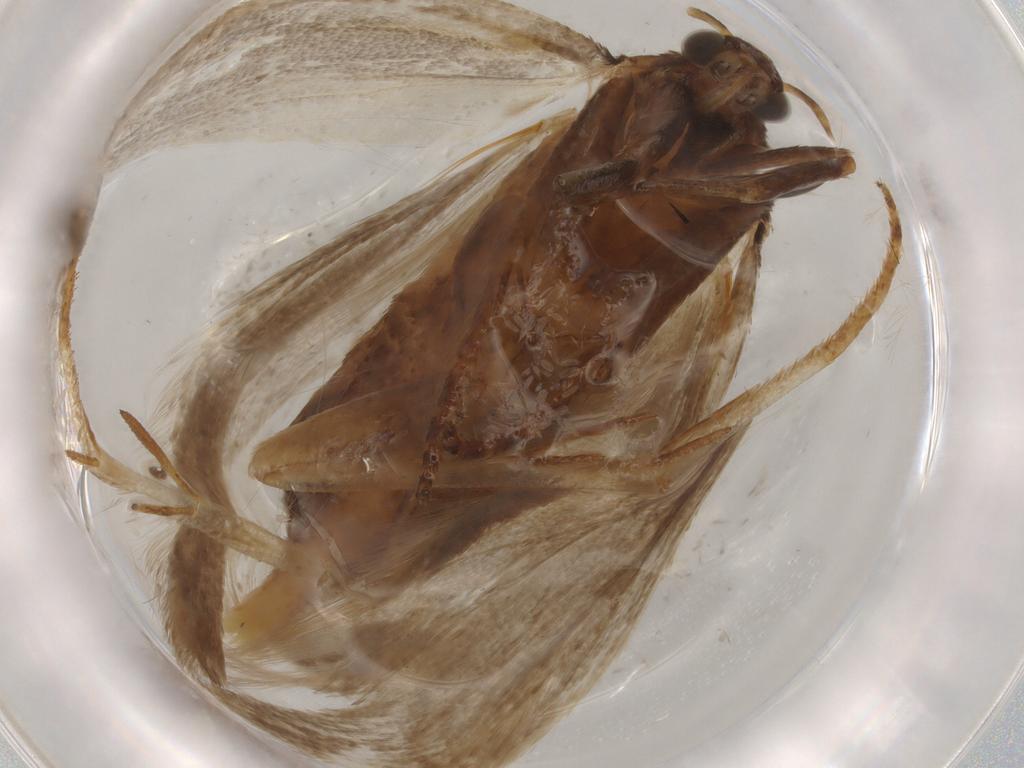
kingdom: Animalia
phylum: Arthropoda
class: Insecta
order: Lepidoptera
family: Erebidae
